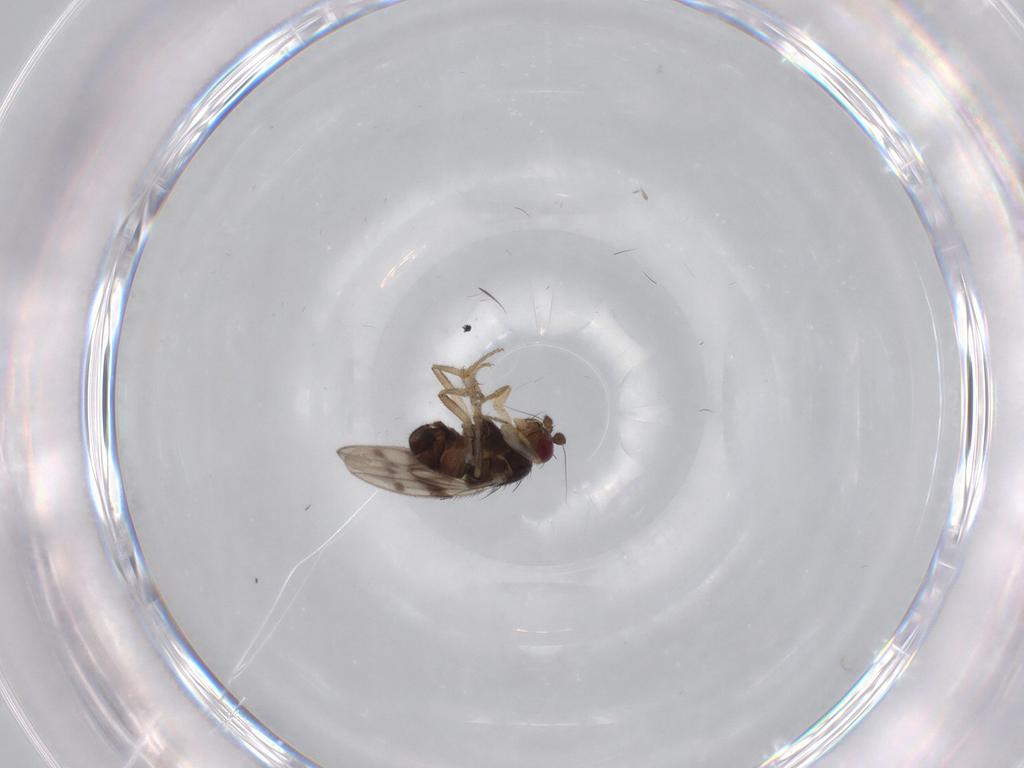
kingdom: Animalia
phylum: Arthropoda
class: Insecta
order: Diptera
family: Sphaeroceridae
